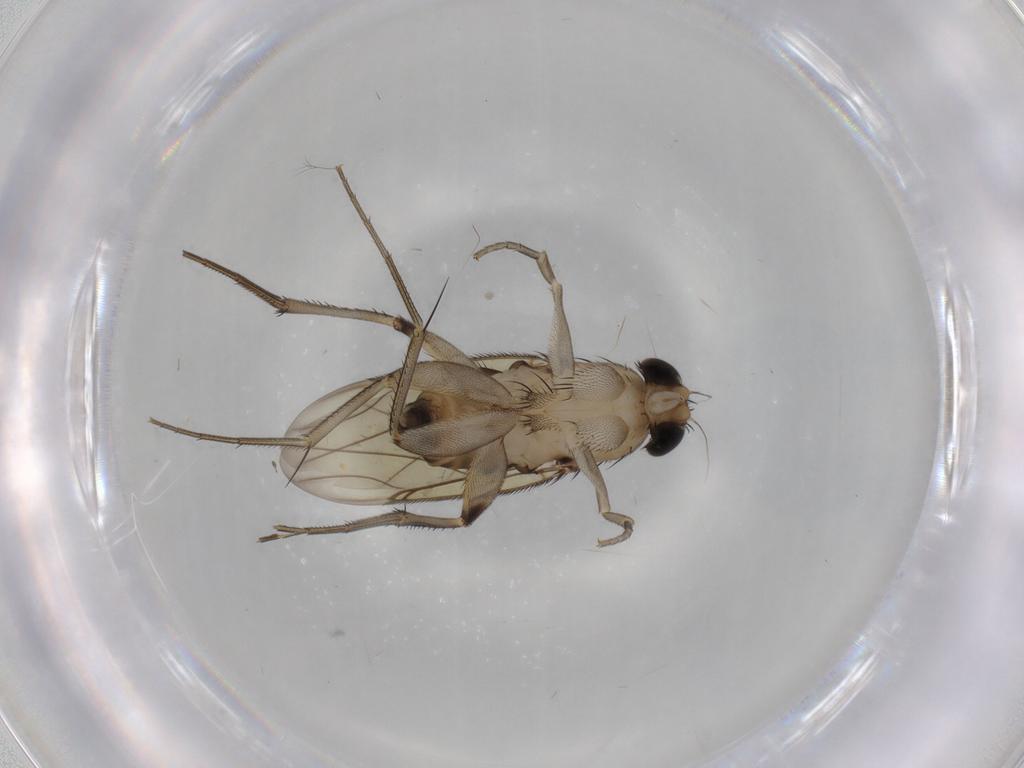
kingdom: Animalia
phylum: Arthropoda
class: Insecta
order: Diptera
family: Phoridae
